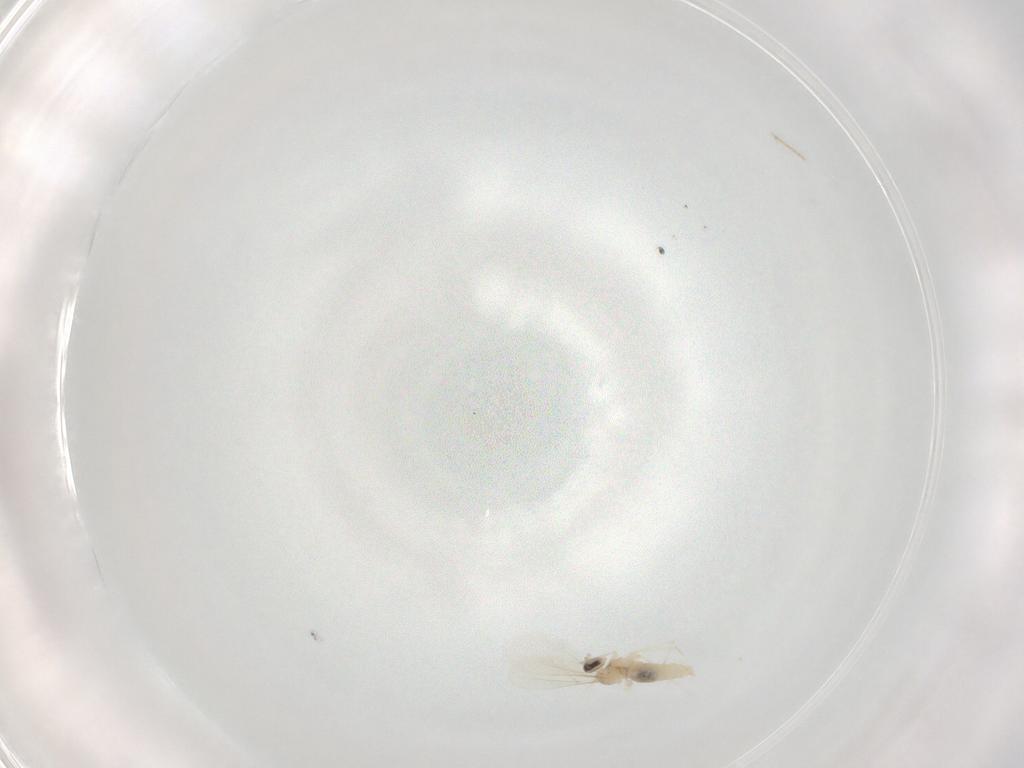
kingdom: Animalia
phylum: Arthropoda
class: Insecta
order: Diptera
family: Cecidomyiidae
